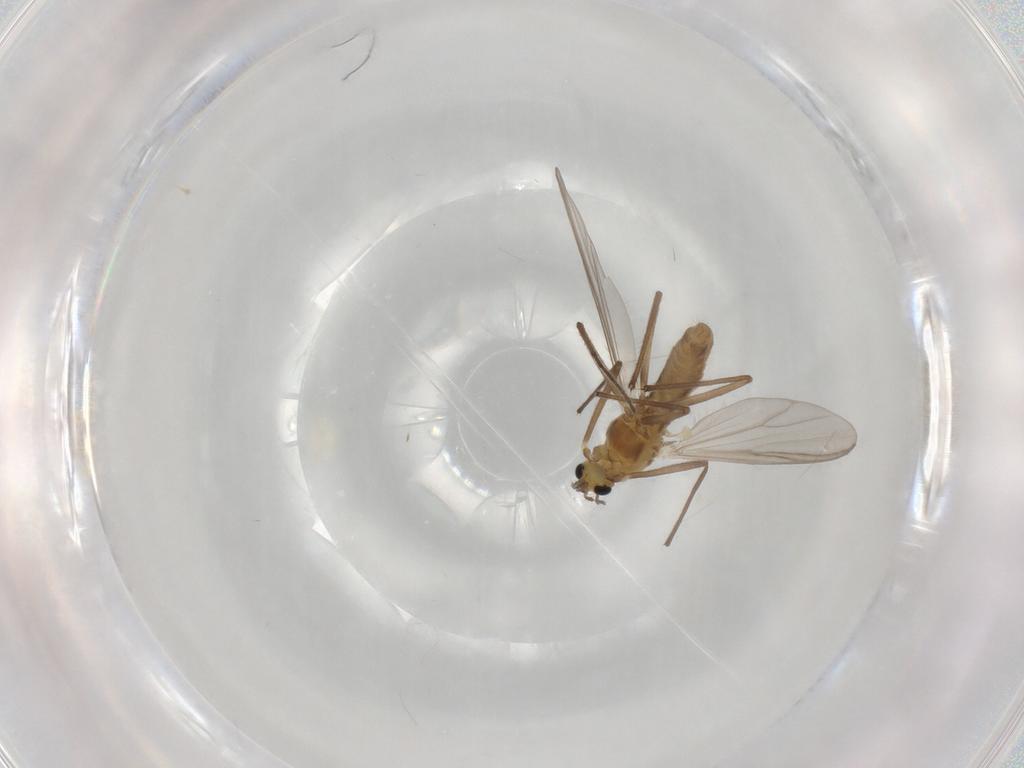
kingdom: Animalia
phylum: Arthropoda
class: Insecta
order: Diptera
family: Chironomidae
